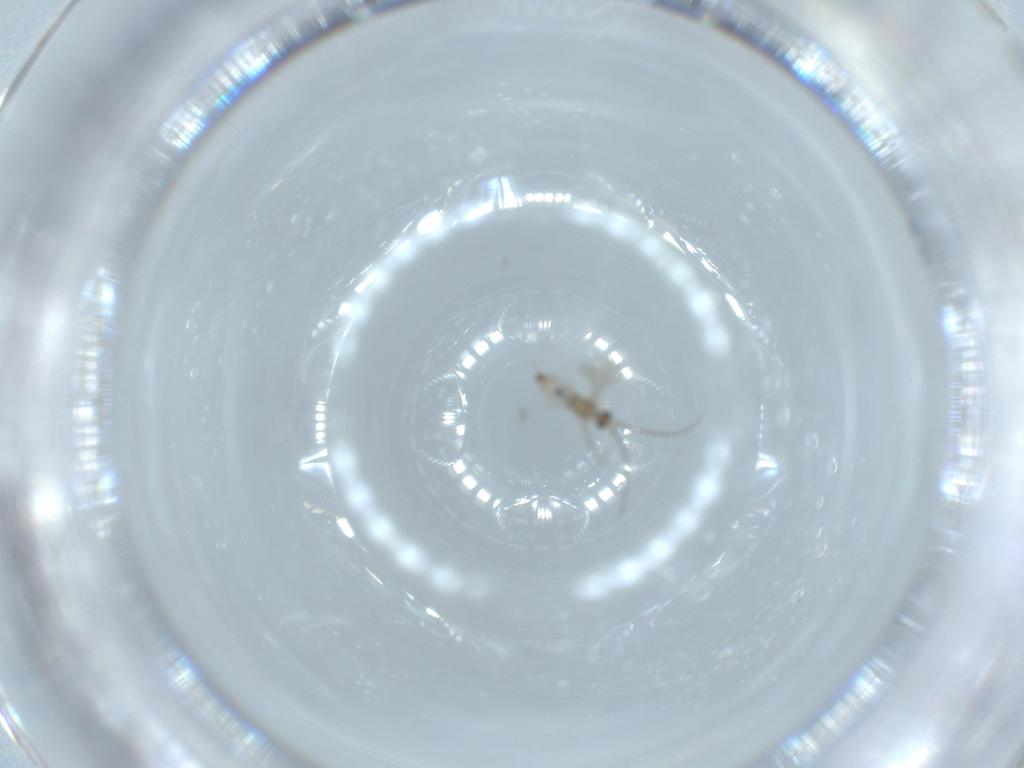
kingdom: Animalia
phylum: Arthropoda
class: Insecta
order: Diptera
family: Cecidomyiidae
